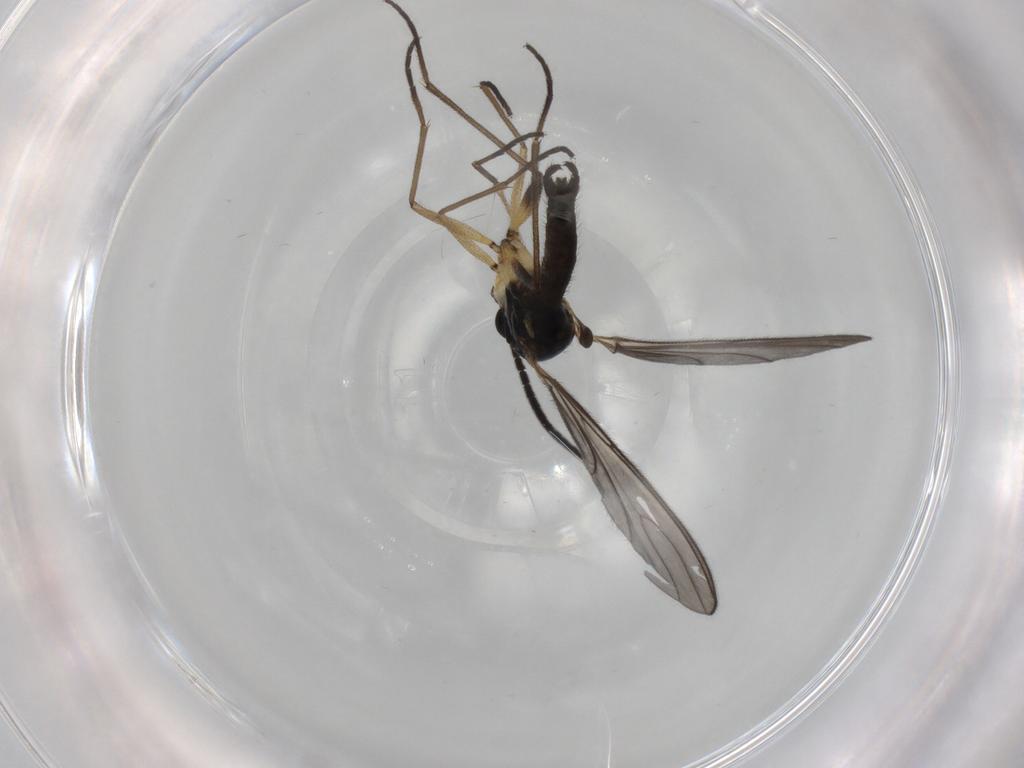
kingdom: Animalia
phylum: Arthropoda
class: Insecta
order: Diptera
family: Sciaridae
